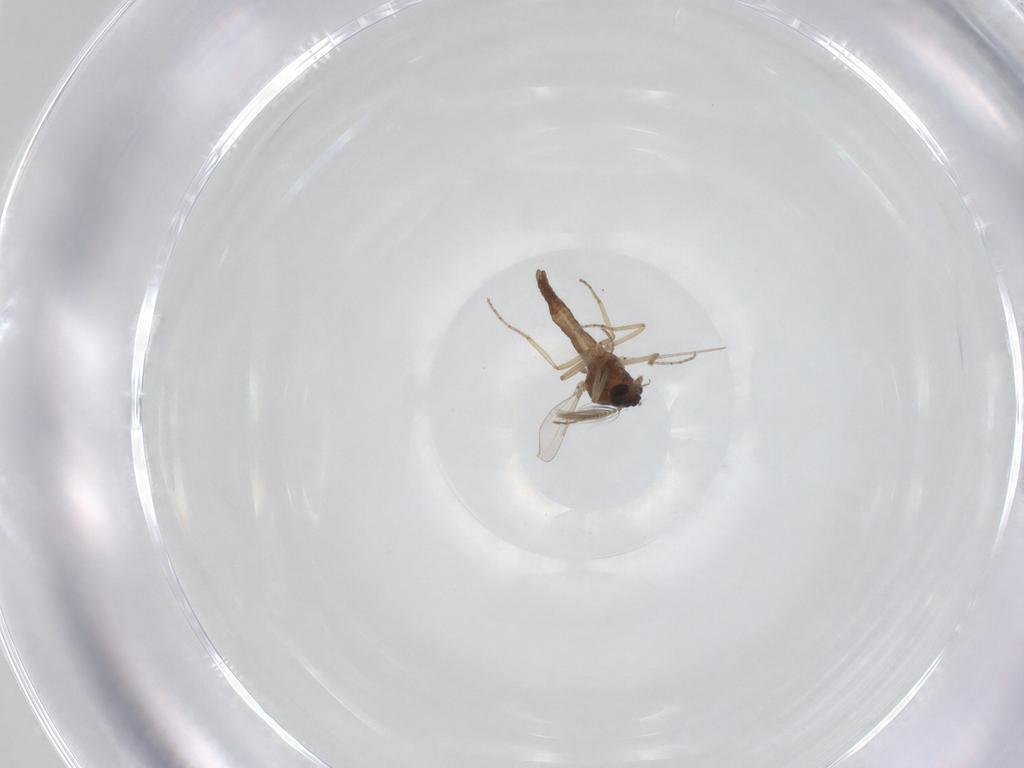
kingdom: Animalia
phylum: Arthropoda
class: Insecta
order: Diptera
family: Ceratopogonidae
